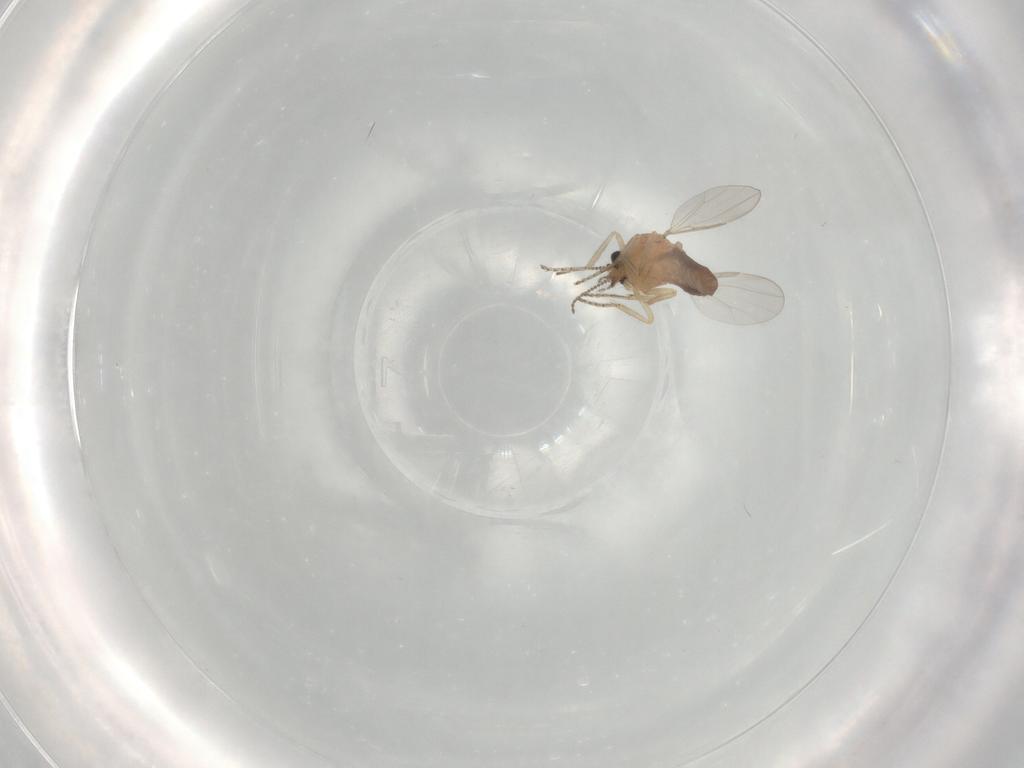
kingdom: Animalia
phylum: Arthropoda
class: Insecta
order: Diptera
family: Ceratopogonidae
